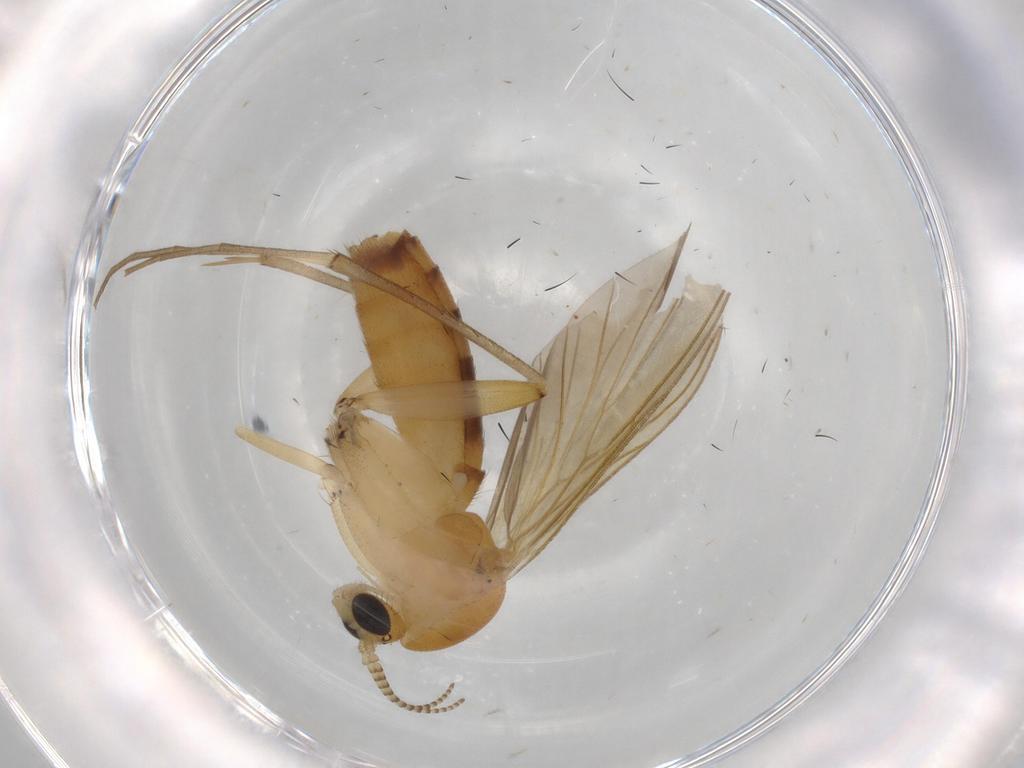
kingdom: Animalia
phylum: Arthropoda
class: Insecta
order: Diptera
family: Mycetophilidae
